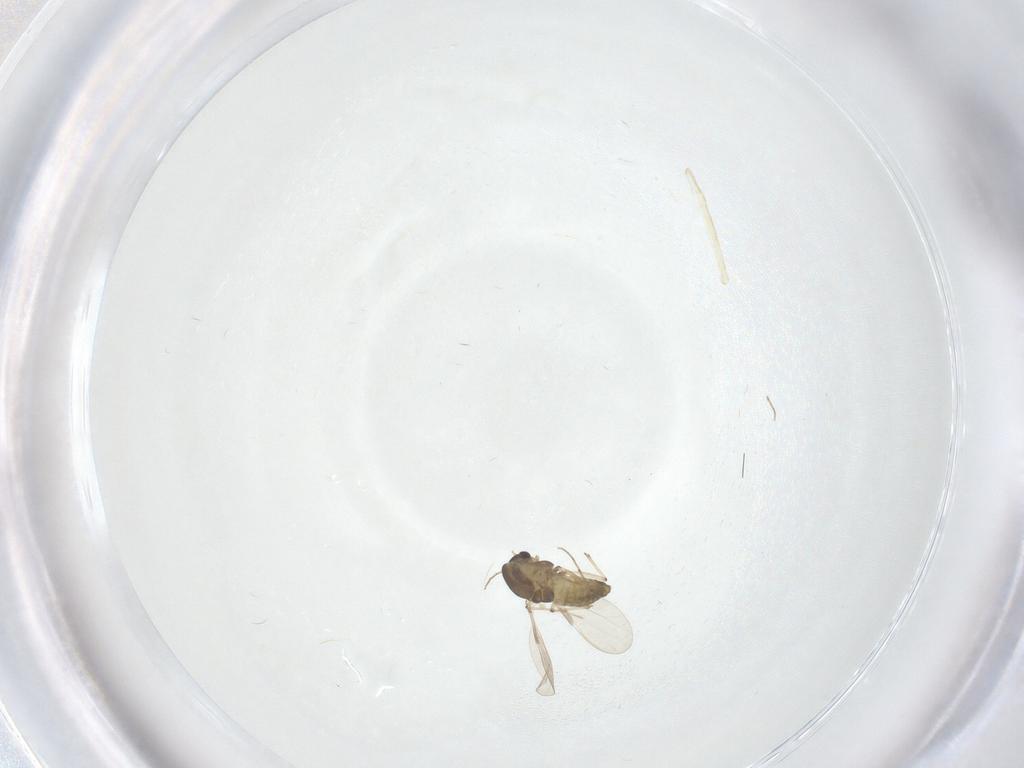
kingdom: Animalia
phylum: Arthropoda
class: Insecta
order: Diptera
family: Chironomidae
